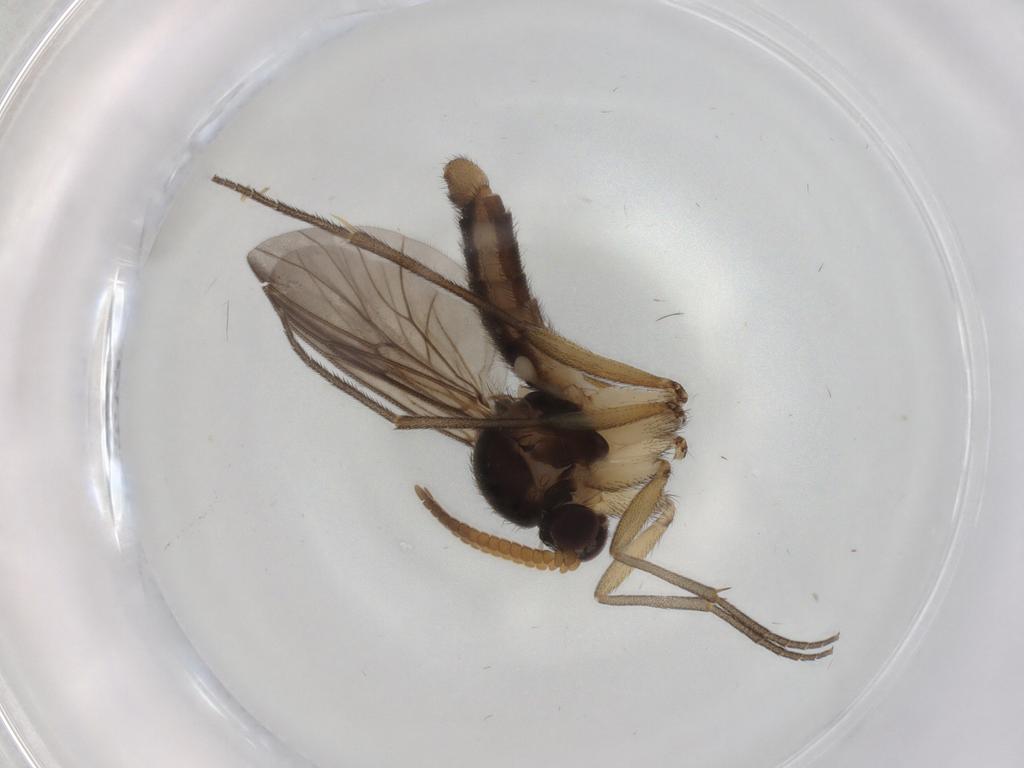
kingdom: Animalia
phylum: Arthropoda
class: Insecta
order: Diptera
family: Mycetophilidae
